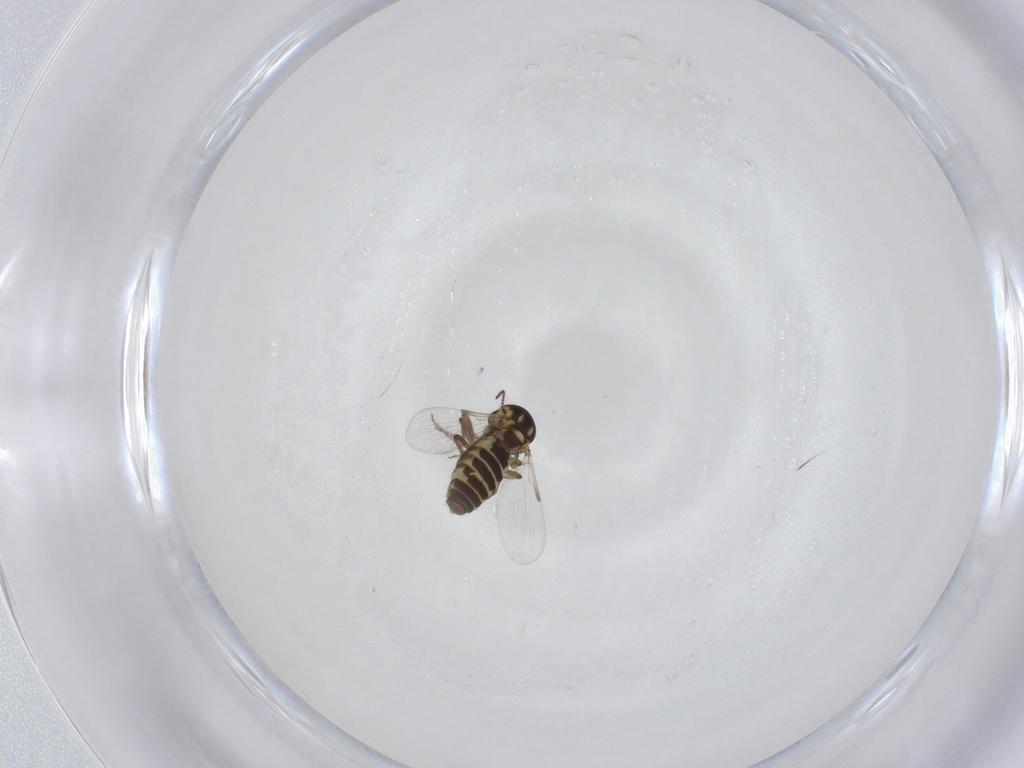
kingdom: Animalia
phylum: Arthropoda
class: Insecta
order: Diptera
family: Ceratopogonidae
